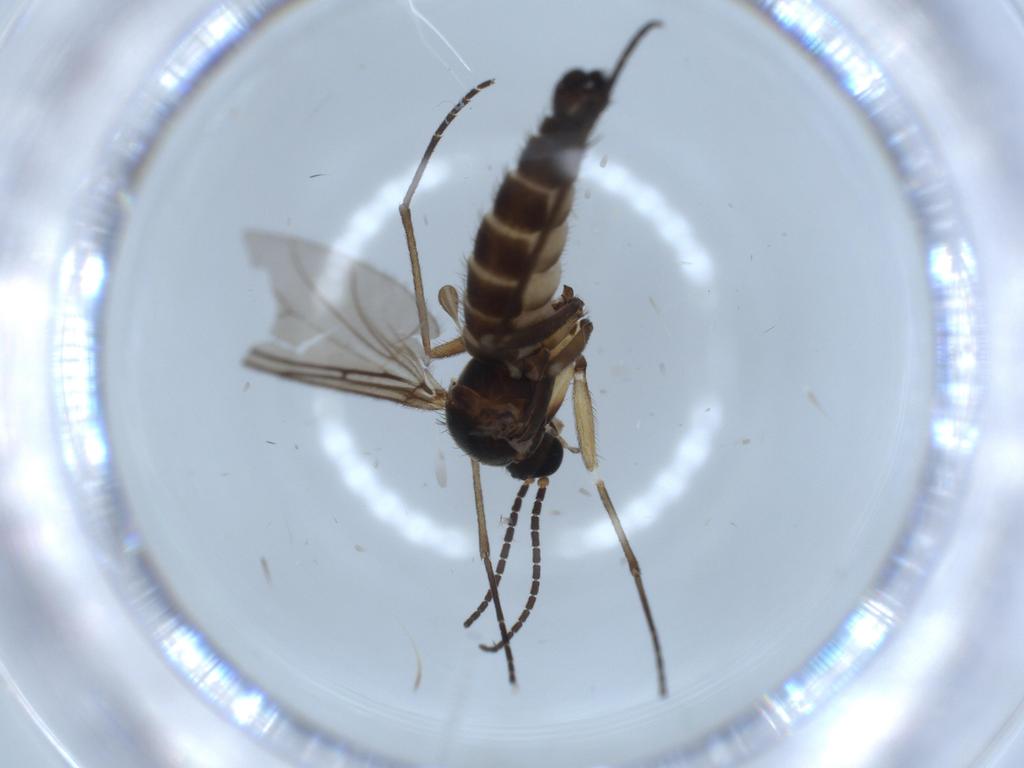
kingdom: Animalia
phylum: Arthropoda
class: Insecta
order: Diptera
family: Sciaridae
